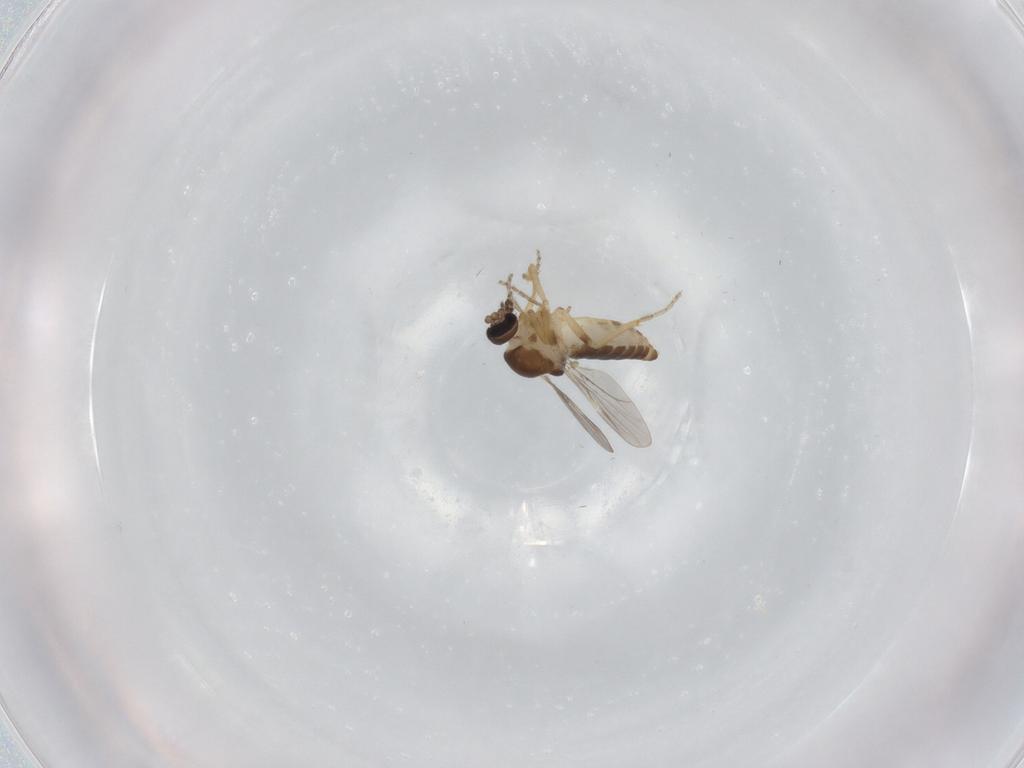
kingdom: Animalia
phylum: Arthropoda
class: Insecta
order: Diptera
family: Ceratopogonidae
